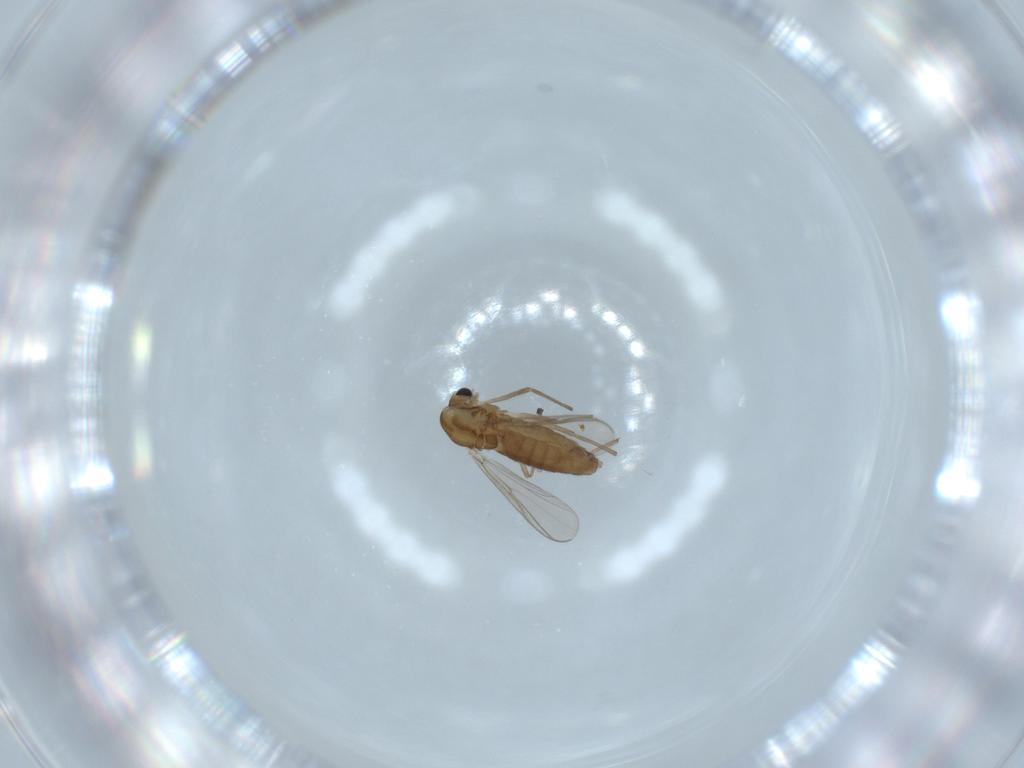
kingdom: Animalia
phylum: Arthropoda
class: Insecta
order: Diptera
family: Chironomidae
